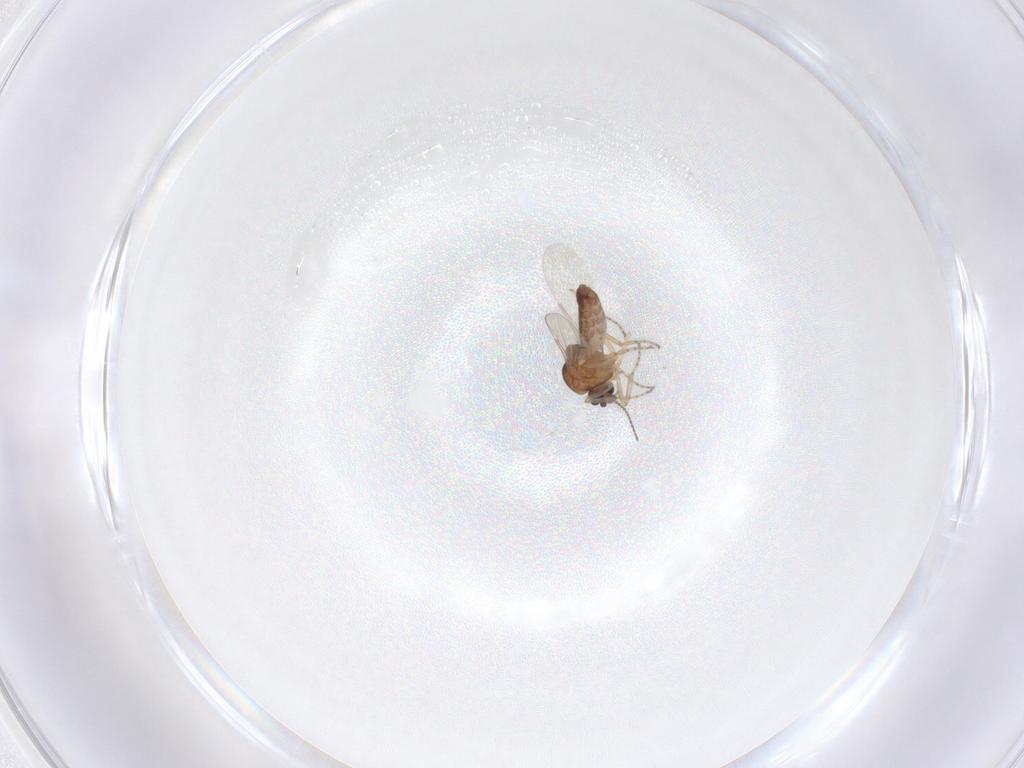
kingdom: Animalia
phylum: Arthropoda
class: Insecta
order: Diptera
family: Ceratopogonidae
